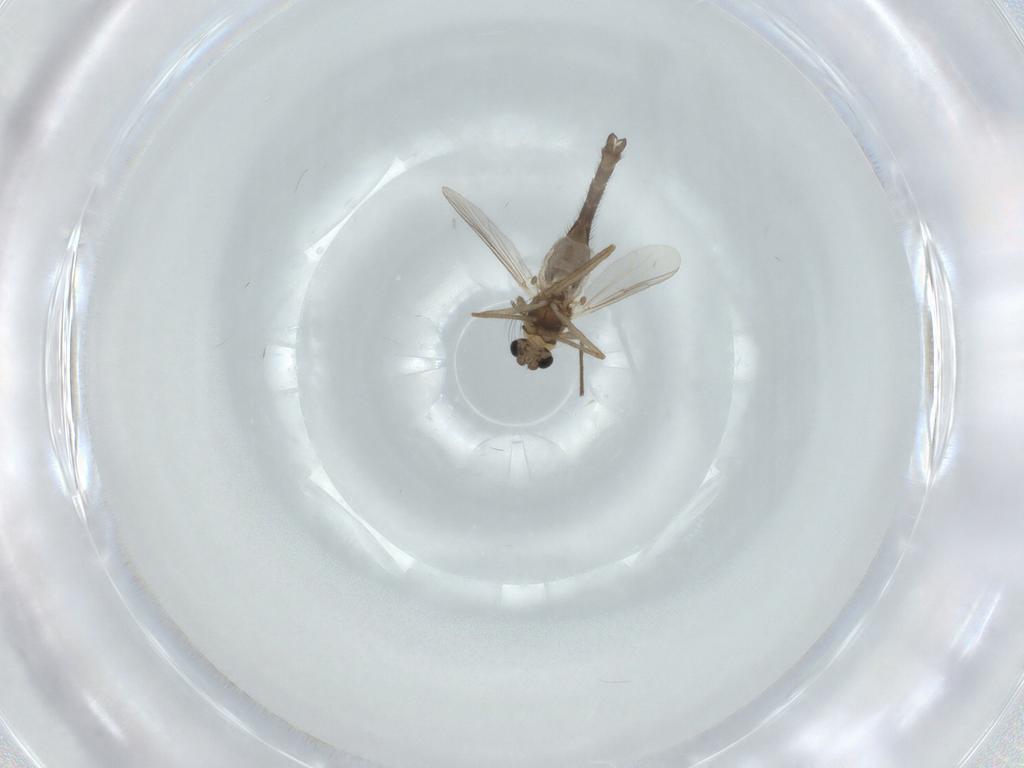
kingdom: Animalia
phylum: Arthropoda
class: Insecta
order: Diptera
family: Chironomidae
